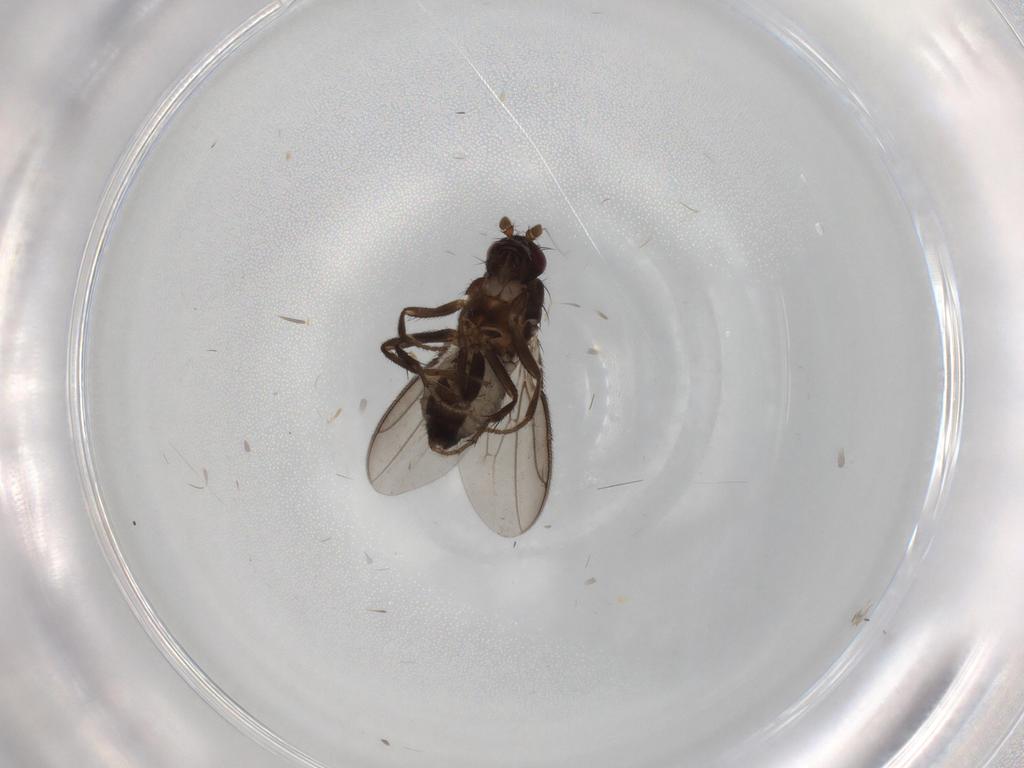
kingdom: Animalia
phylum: Arthropoda
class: Insecta
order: Diptera
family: Sphaeroceridae
